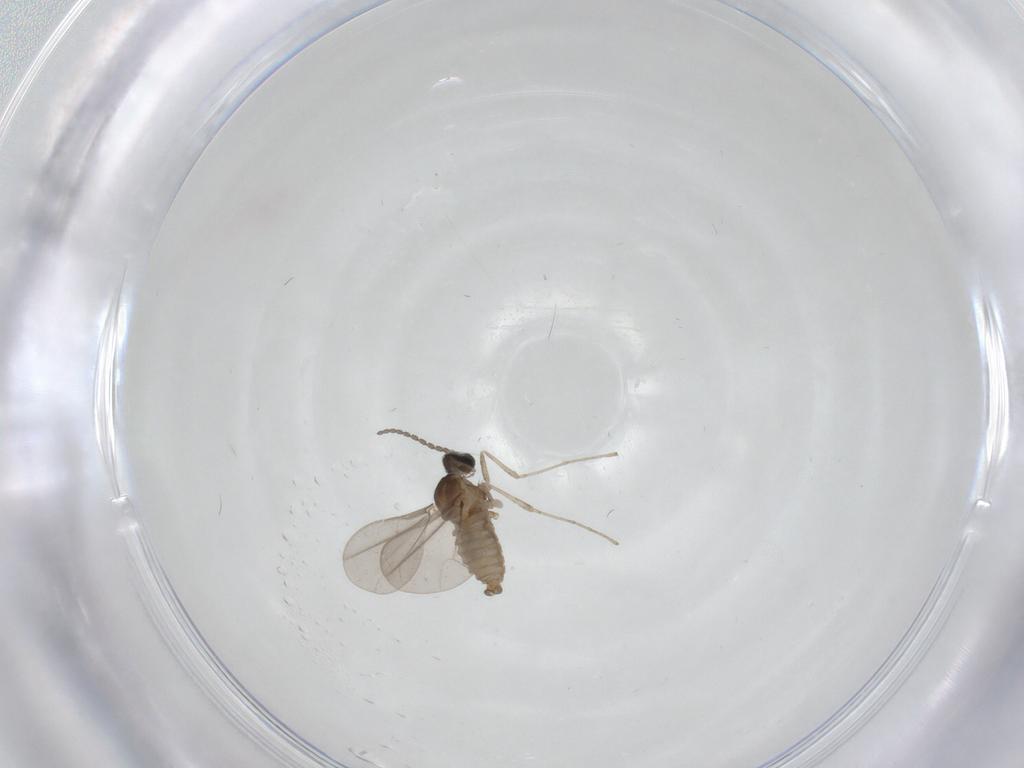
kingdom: Animalia
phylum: Arthropoda
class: Insecta
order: Diptera
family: Cecidomyiidae
